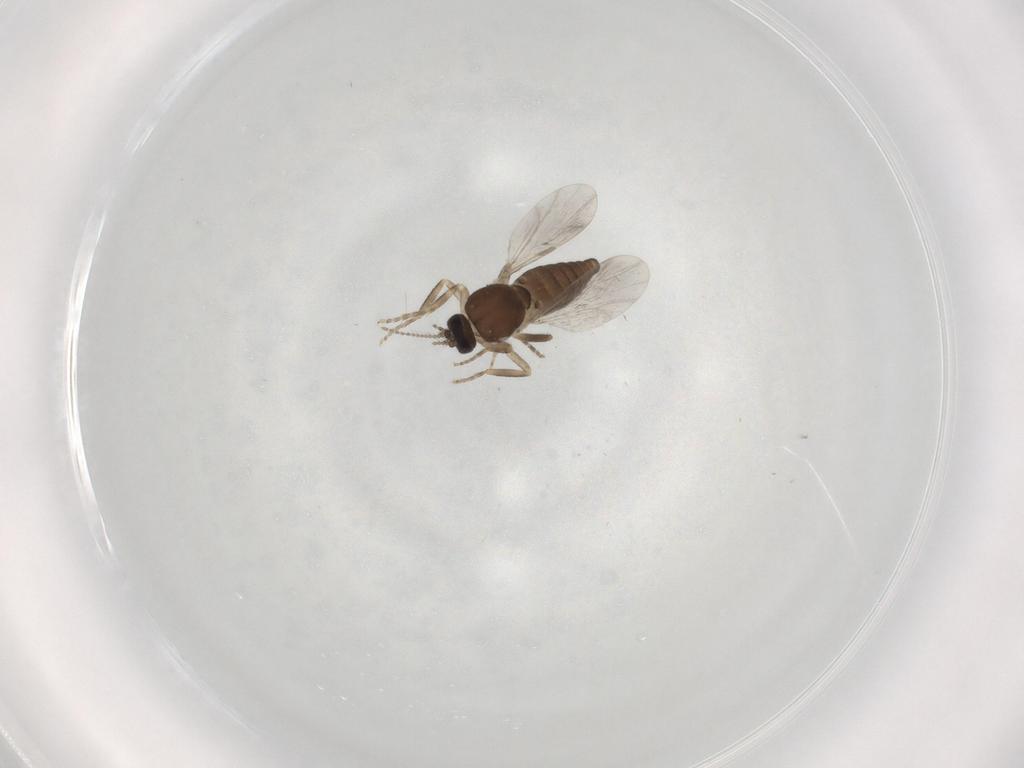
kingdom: Animalia
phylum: Arthropoda
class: Insecta
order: Diptera
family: Ceratopogonidae
